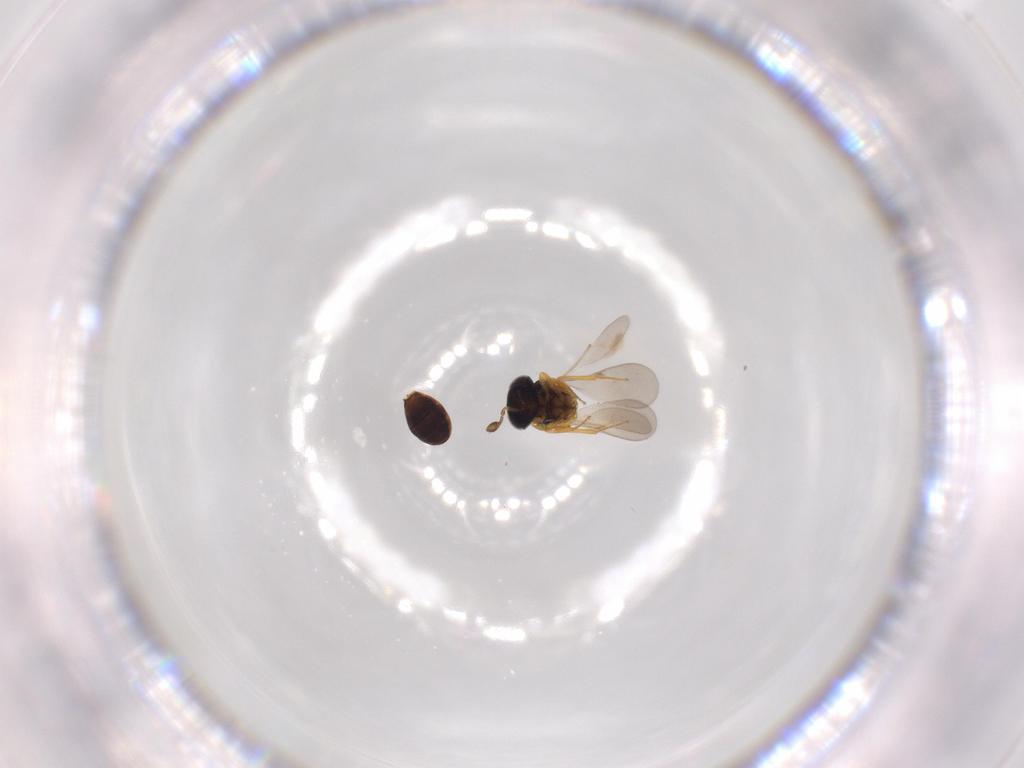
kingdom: Animalia
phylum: Arthropoda
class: Insecta
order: Hymenoptera
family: Scelionidae
